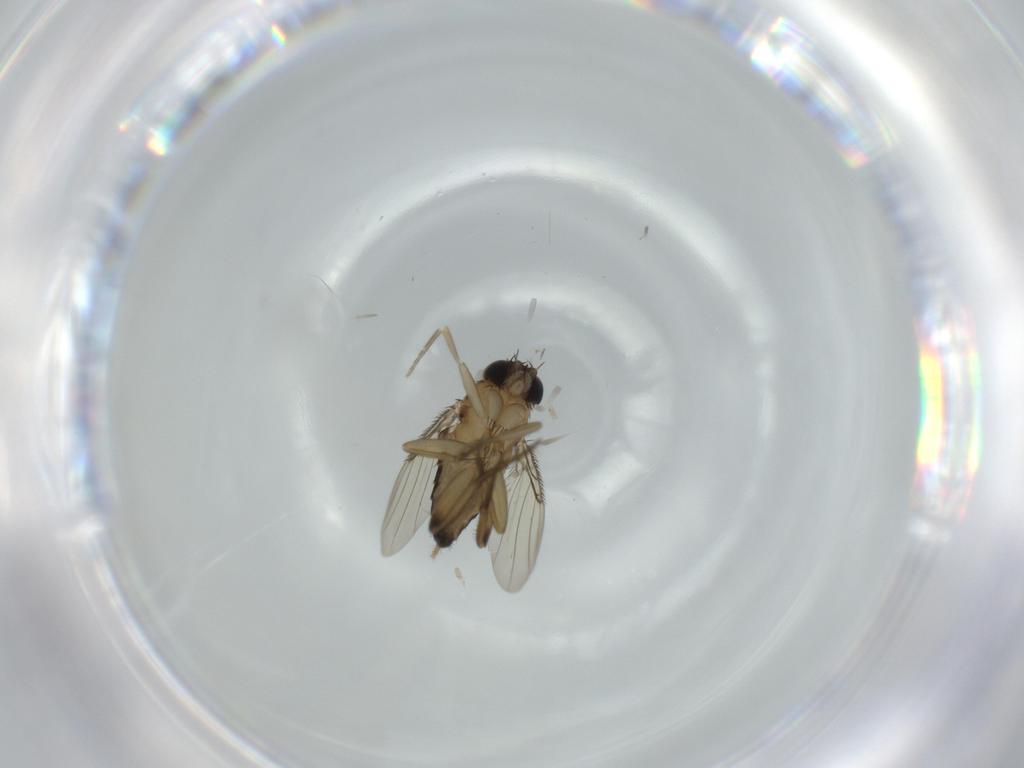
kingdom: Animalia
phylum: Arthropoda
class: Insecta
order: Diptera
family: Phoridae
